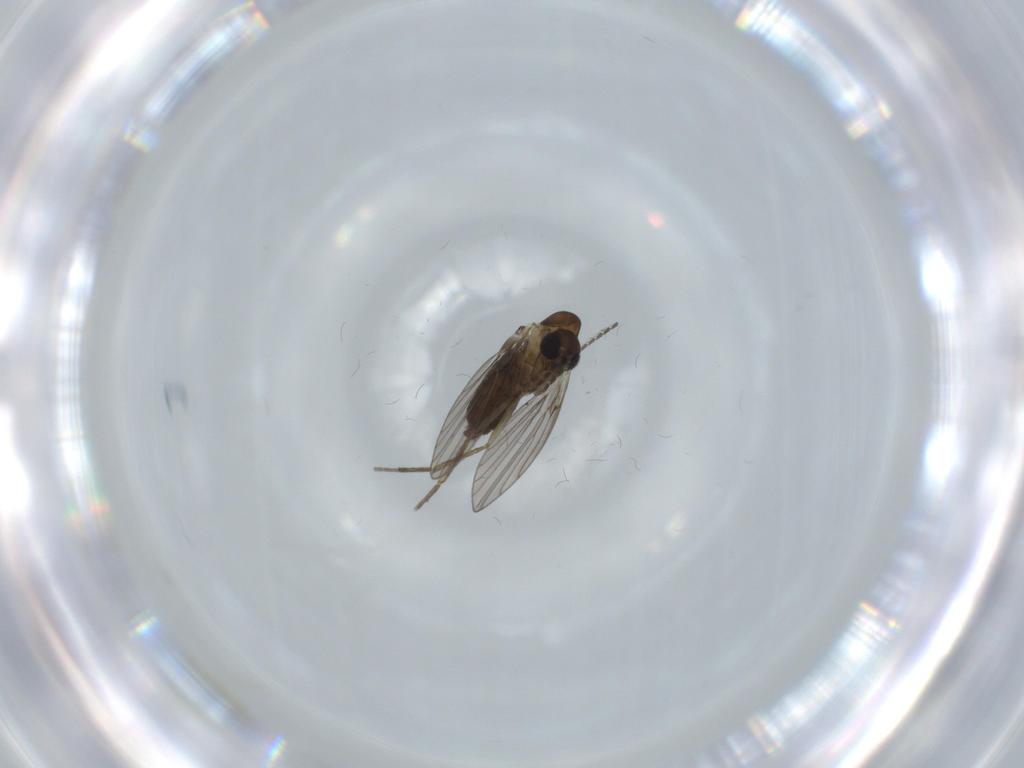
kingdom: Animalia
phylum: Arthropoda
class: Insecta
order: Diptera
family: Psychodidae
